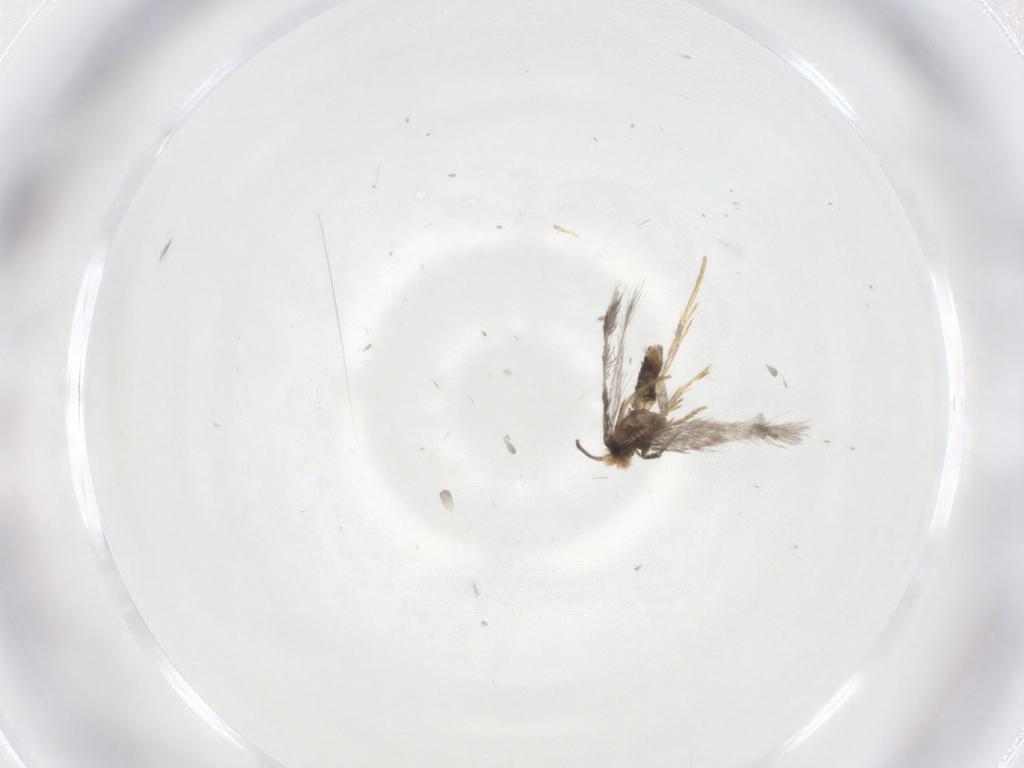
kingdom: Animalia
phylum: Arthropoda
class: Insecta
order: Lepidoptera
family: Nepticulidae
